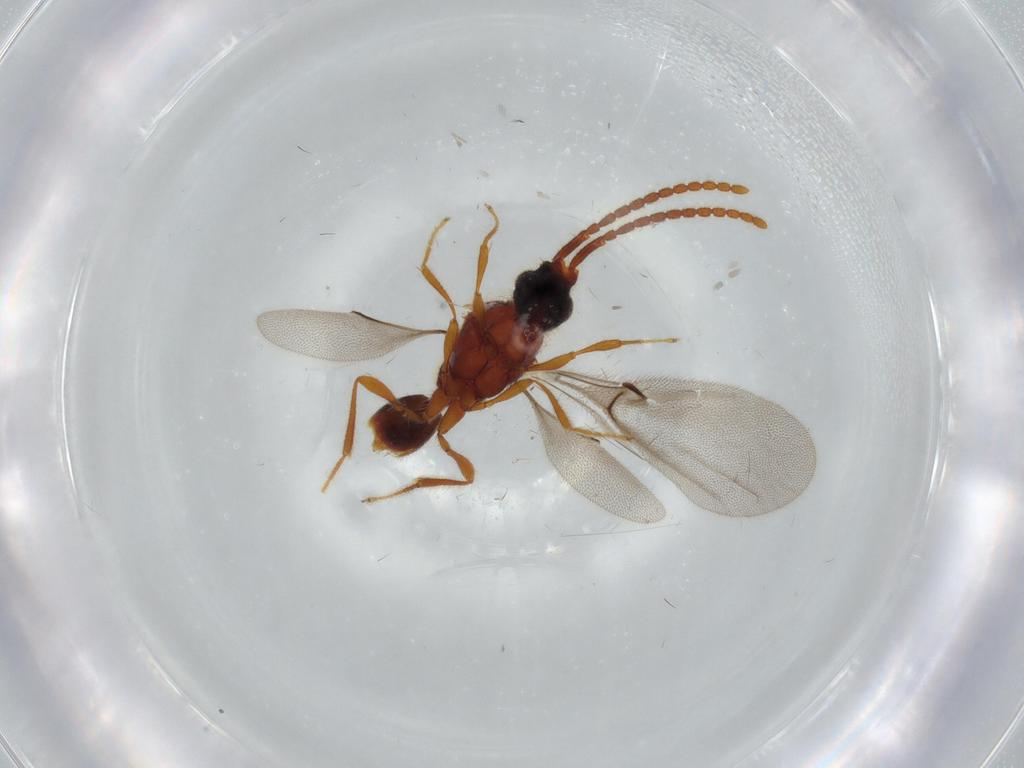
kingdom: Animalia
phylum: Arthropoda
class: Insecta
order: Hymenoptera
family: Diapriidae
